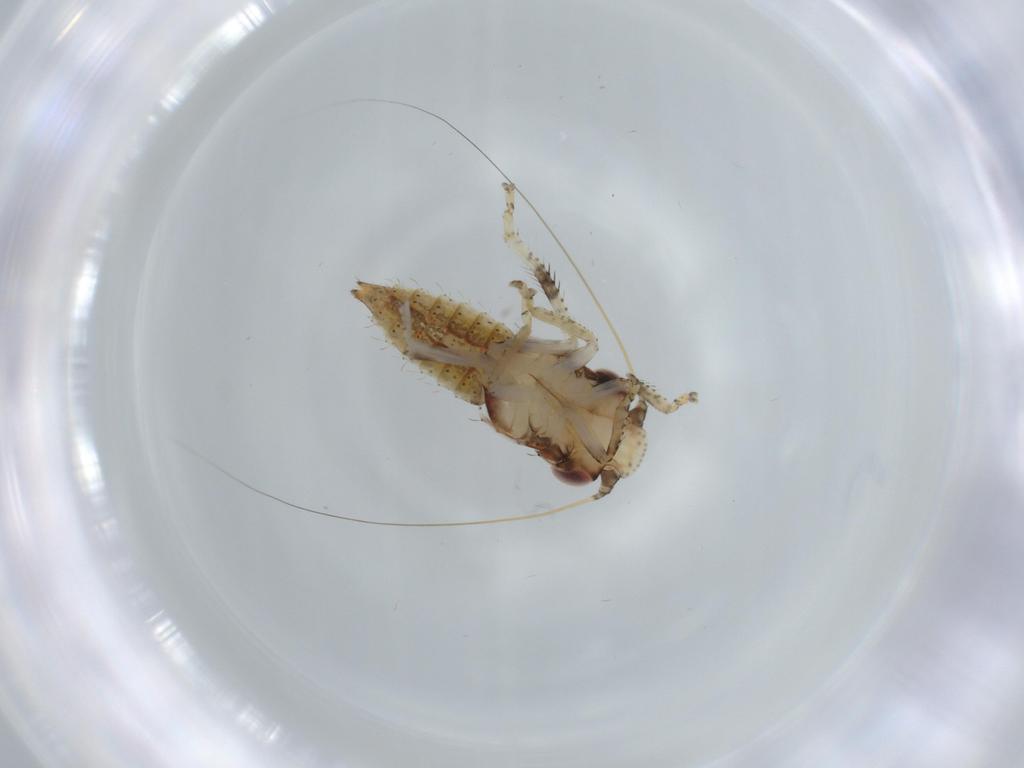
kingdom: Animalia
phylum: Arthropoda
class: Insecta
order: Hemiptera
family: Cicadellidae
